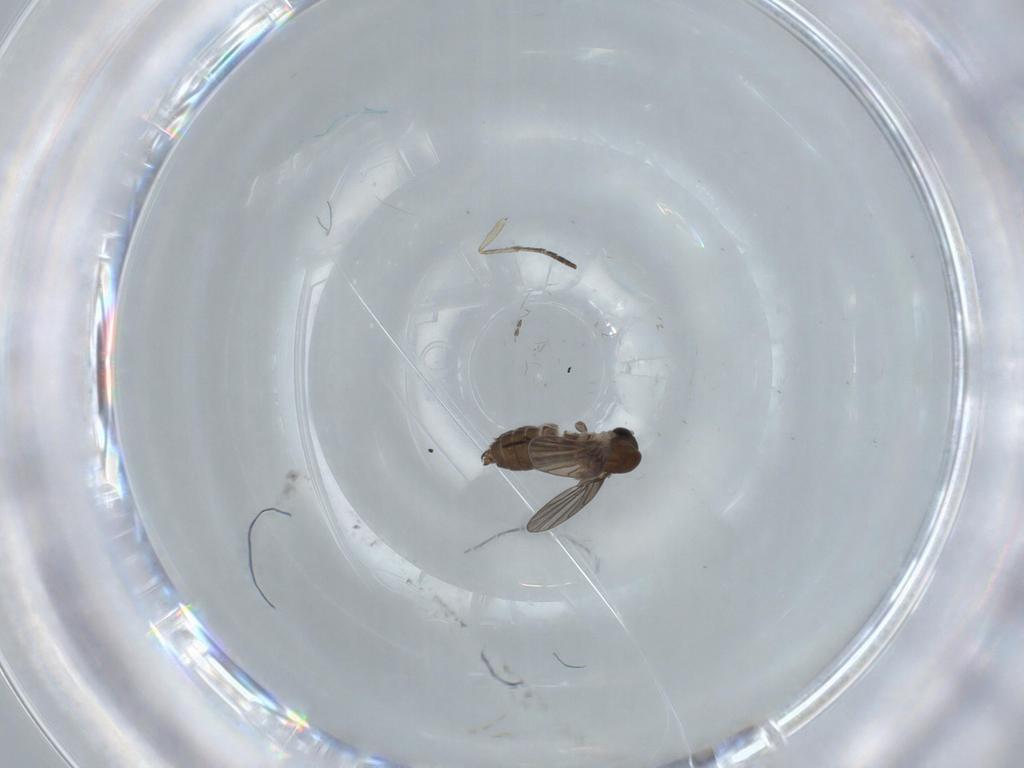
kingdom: Animalia
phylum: Arthropoda
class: Insecta
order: Diptera
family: Psychodidae
